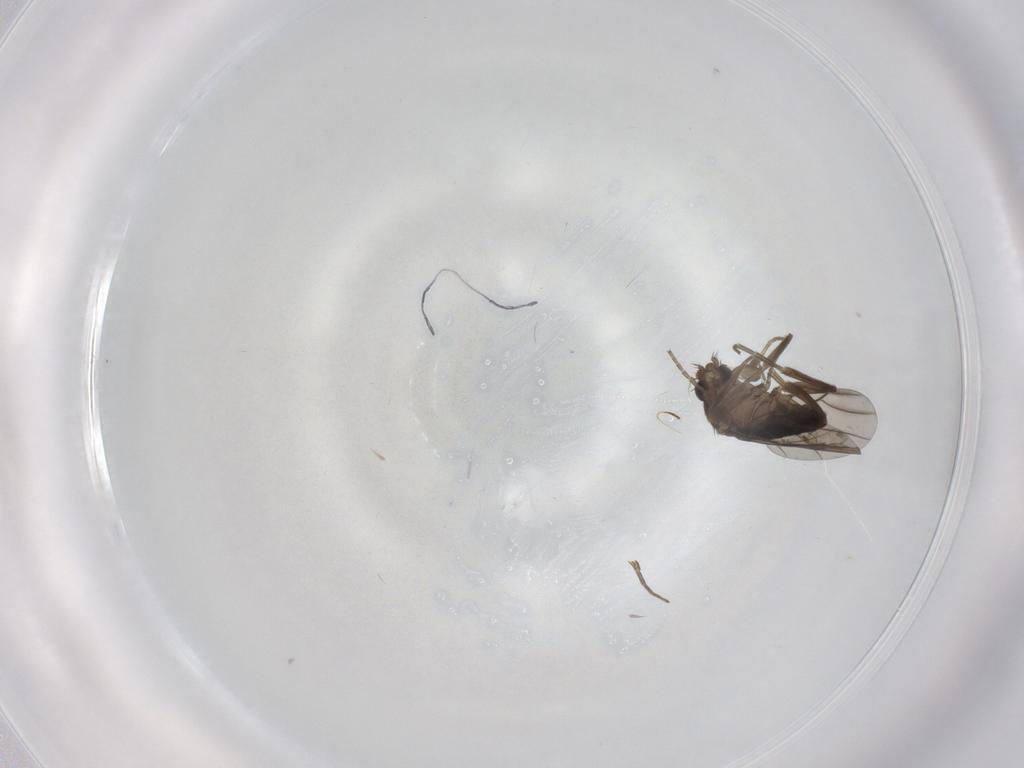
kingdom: Animalia
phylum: Arthropoda
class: Insecta
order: Diptera
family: Phoridae
